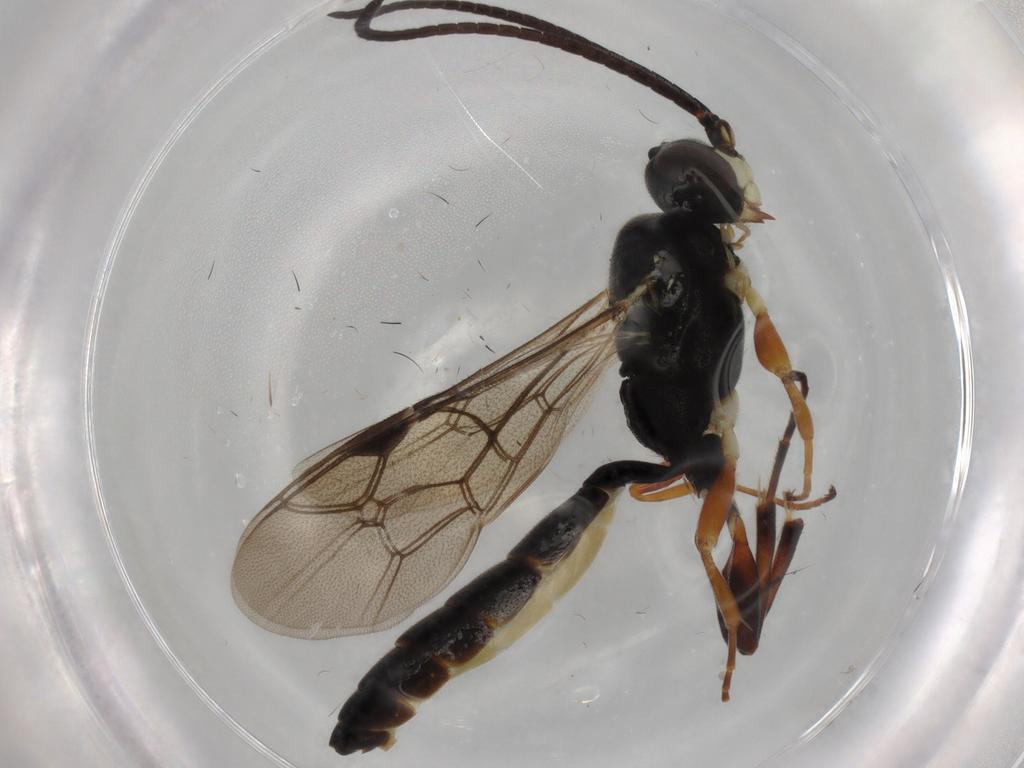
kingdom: Animalia
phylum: Arthropoda
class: Insecta
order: Hymenoptera
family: Ichneumonidae
